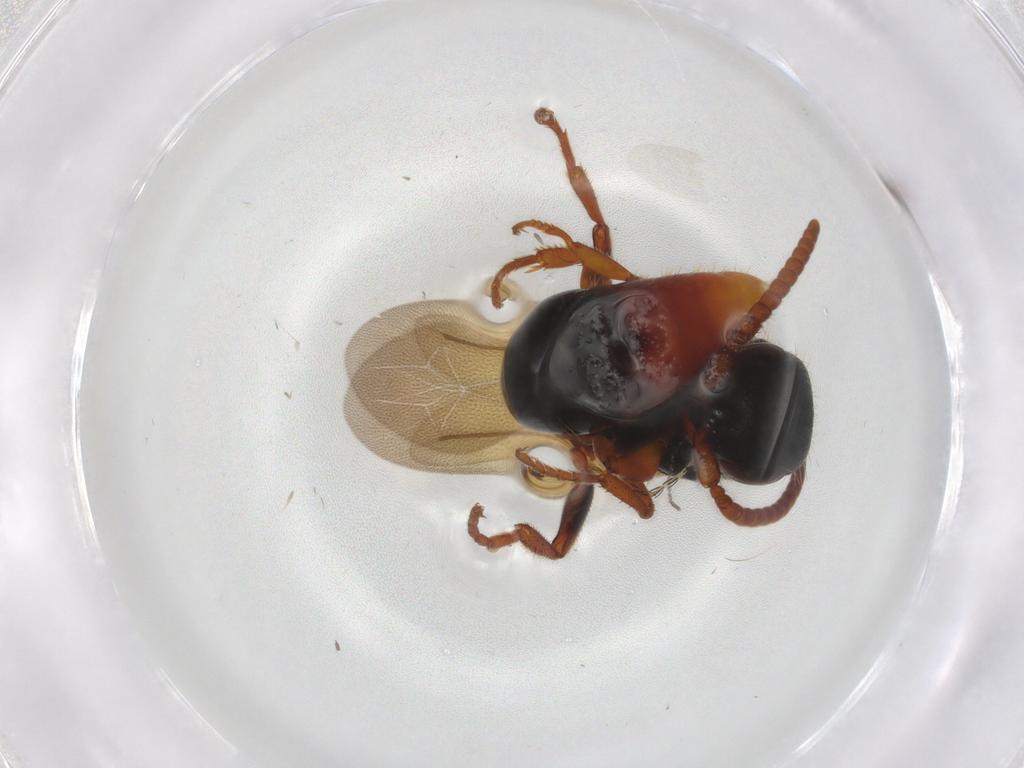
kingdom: Animalia
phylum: Arthropoda
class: Insecta
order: Hymenoptera
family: Bethylidae
